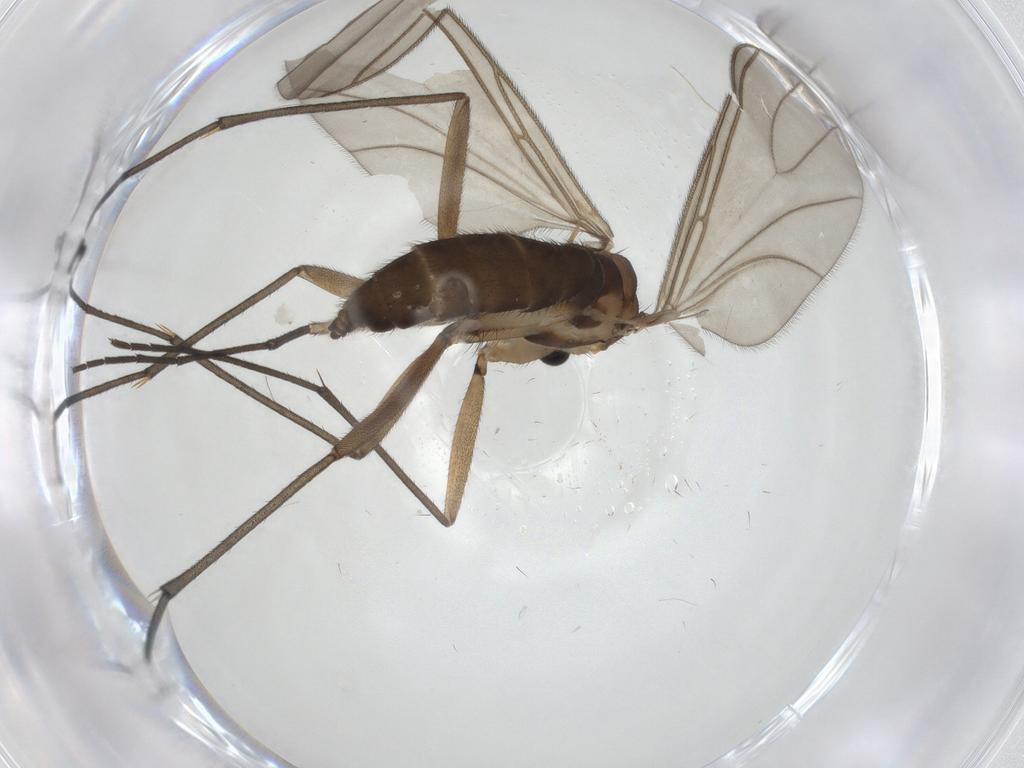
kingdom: Animalia
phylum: Arthropoda
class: Insecta
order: Diptera
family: Sciaridae
